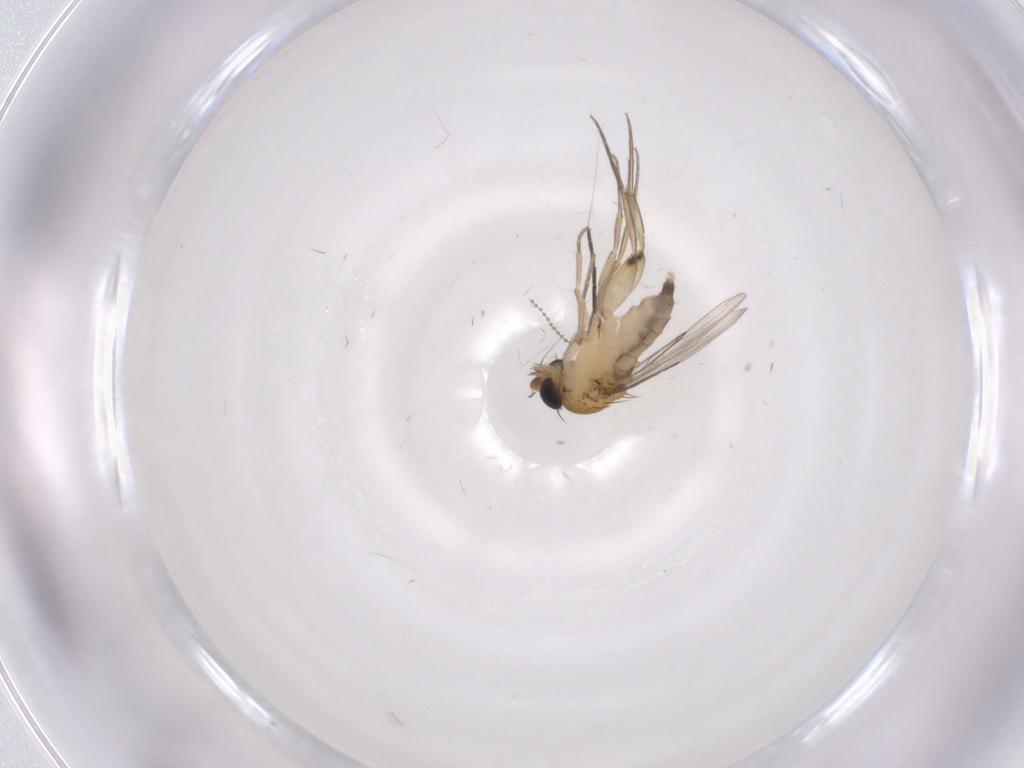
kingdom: Animalia
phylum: Arthropoda
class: Insecta
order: Diptera
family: Phoridae
